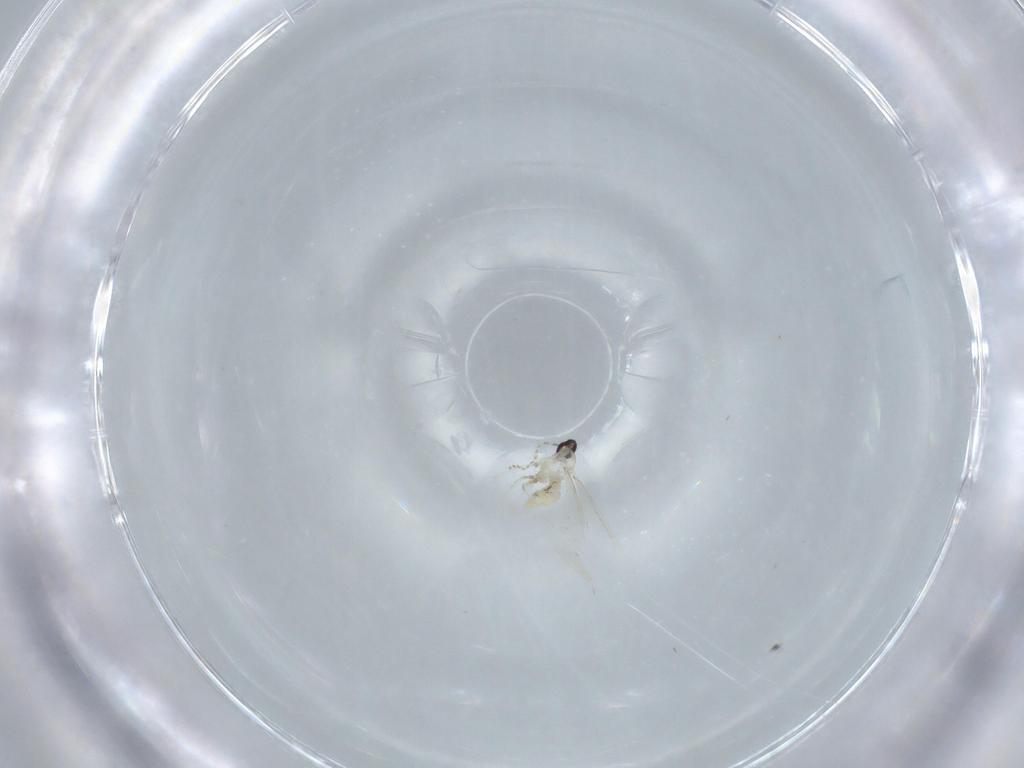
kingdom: Animalia
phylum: Arthropoda
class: Insecta
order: Diptera
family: Cecidomyiidae
